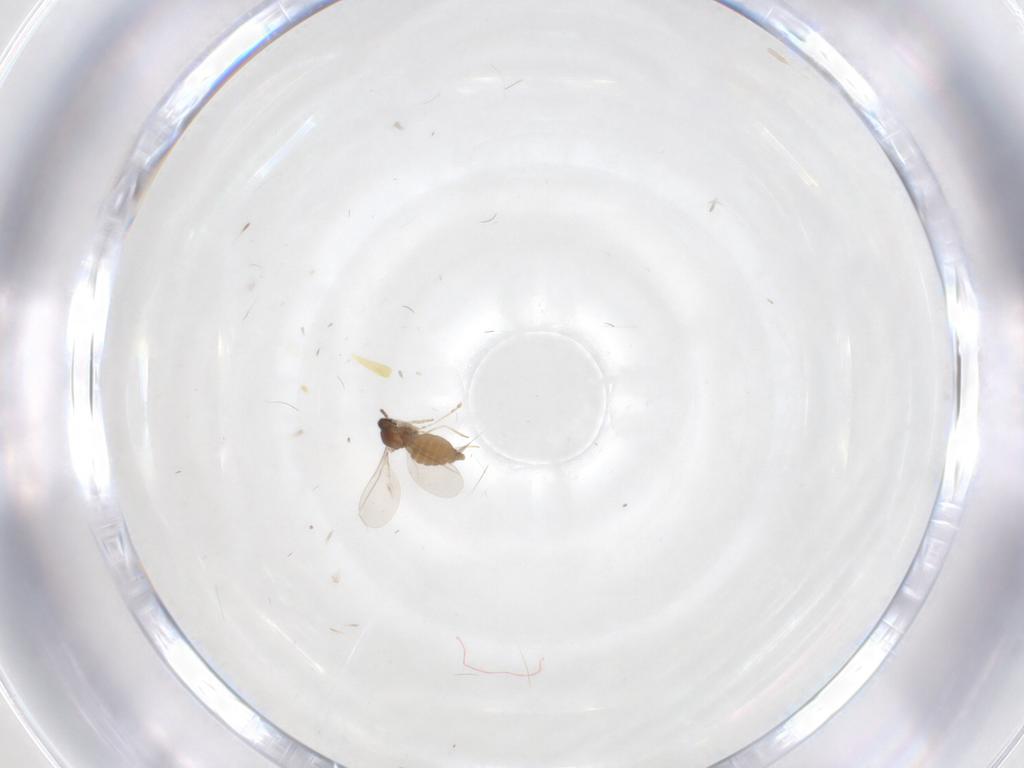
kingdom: Animalia
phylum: Arthropoda
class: Insecta
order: Diptera
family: Cecidomyiidae
